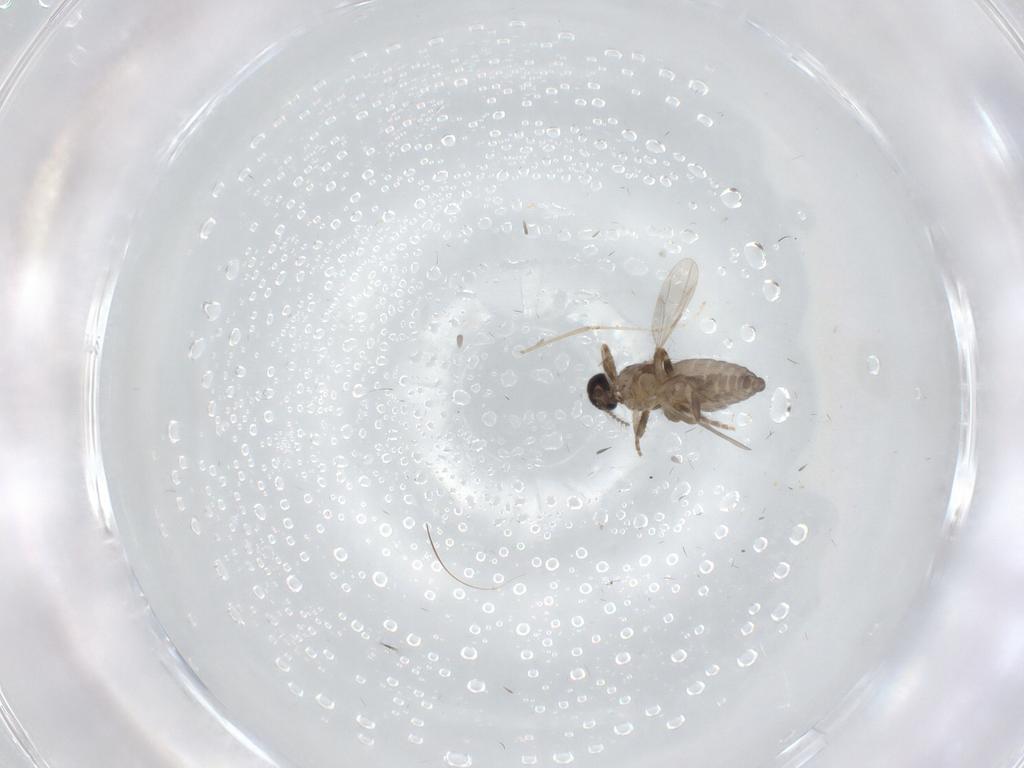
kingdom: Animalia
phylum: Arthropoda
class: Insecta
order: Diptera
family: Ceratopogonidae
